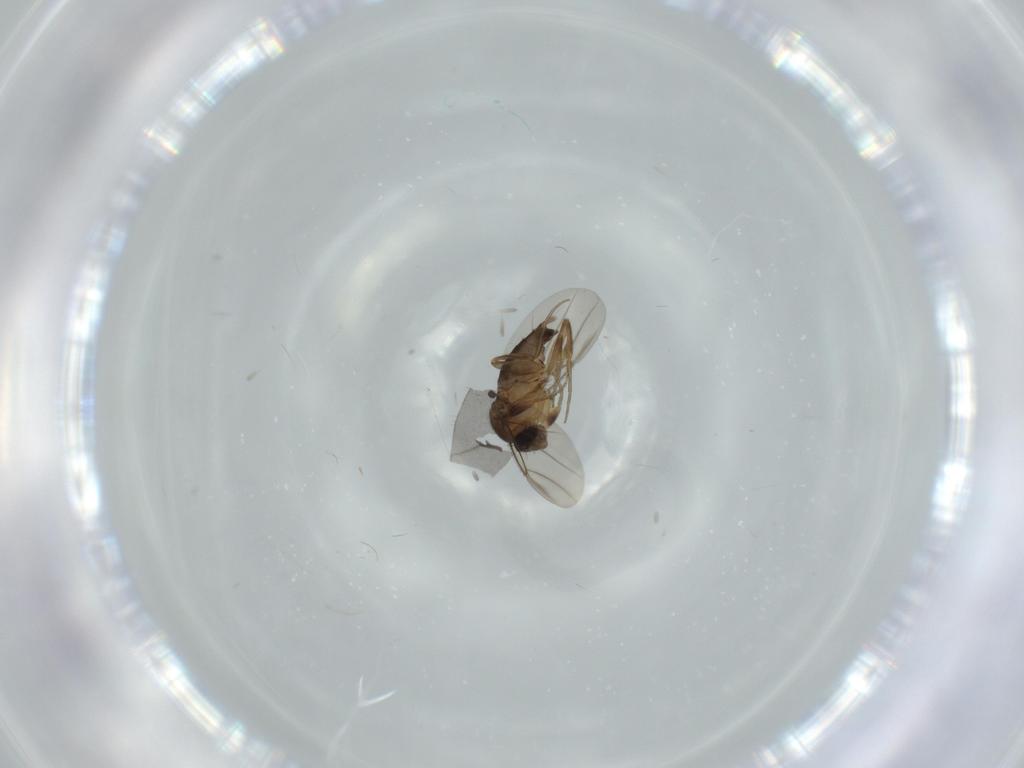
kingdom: Animalia
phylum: Arthropoda
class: Insecta
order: Diptera
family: Phoridae
